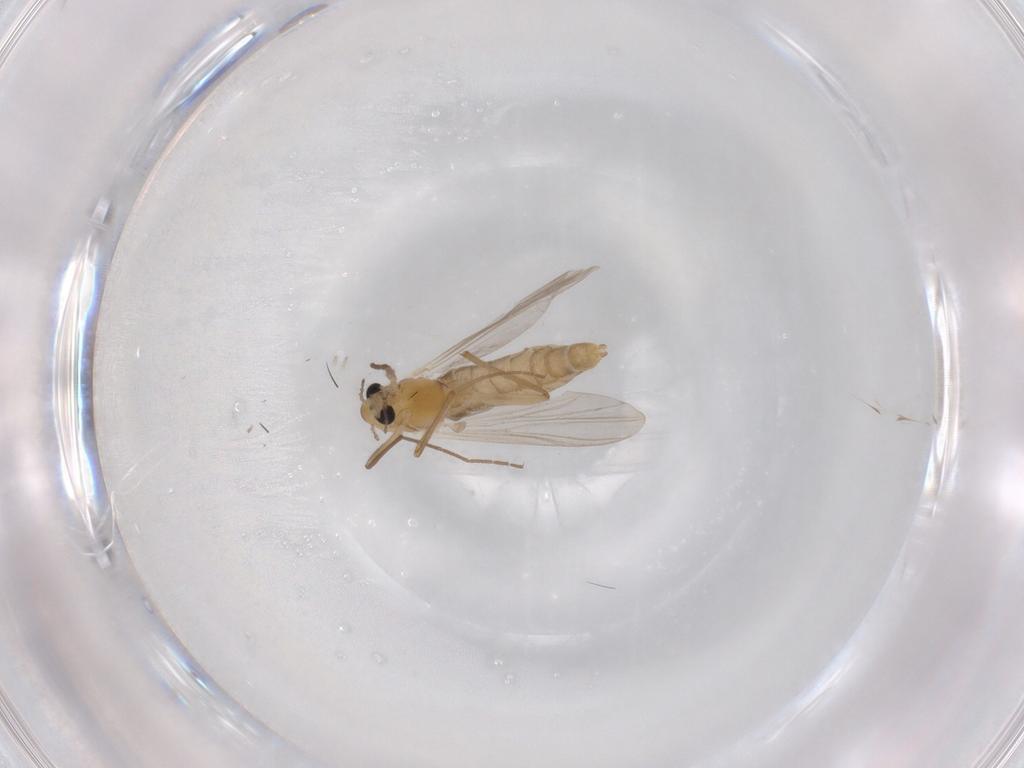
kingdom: Animalia
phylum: Arthropoda
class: Insecta
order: Diptera
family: Chironomidae
